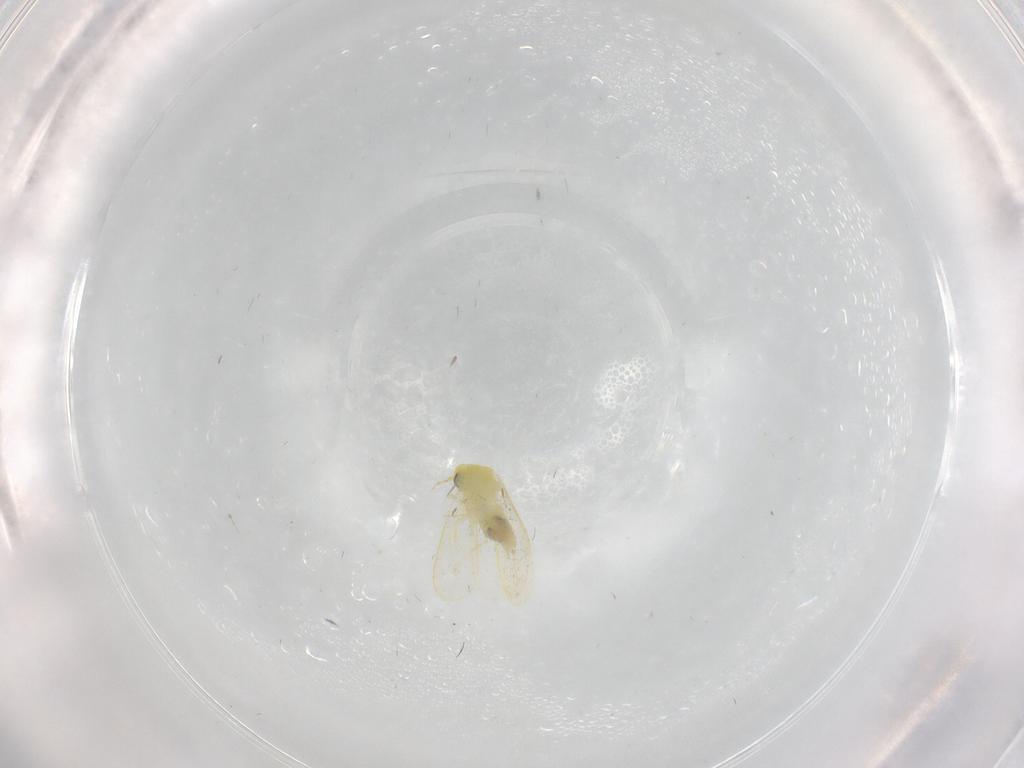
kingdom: Animalia
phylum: Arthropoda
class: Insecta
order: Hemiptera
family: Aleyrodidae
